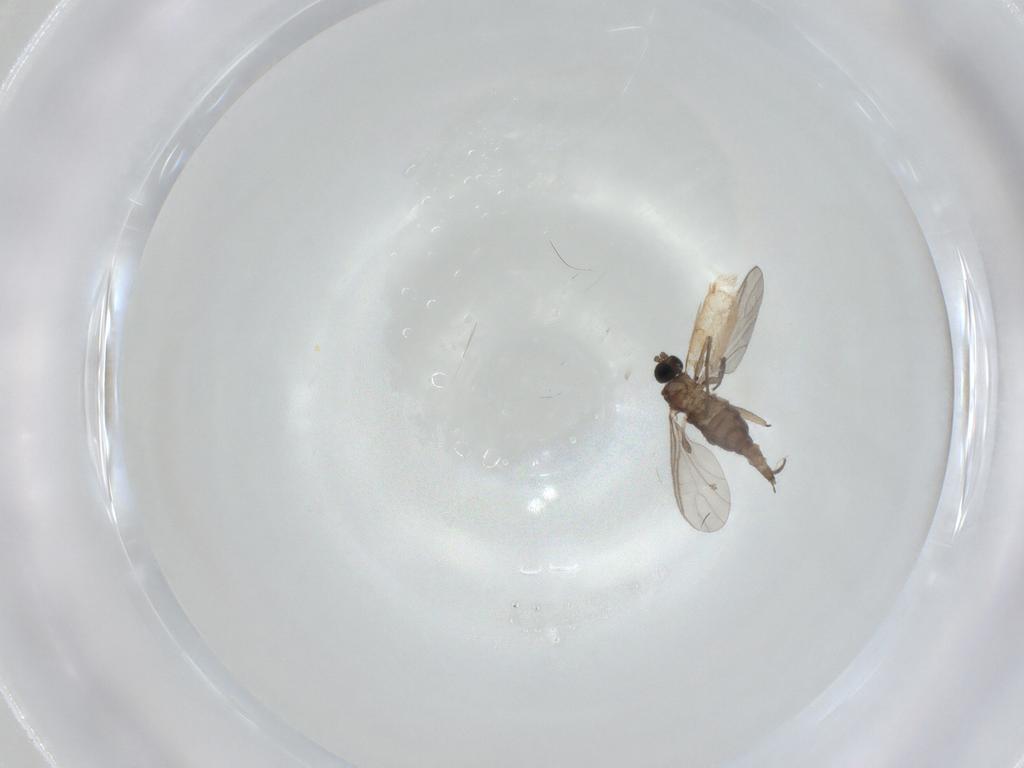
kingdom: Animalia
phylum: Arthropoda
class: Insecta
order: Diptera
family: Sciaridae
